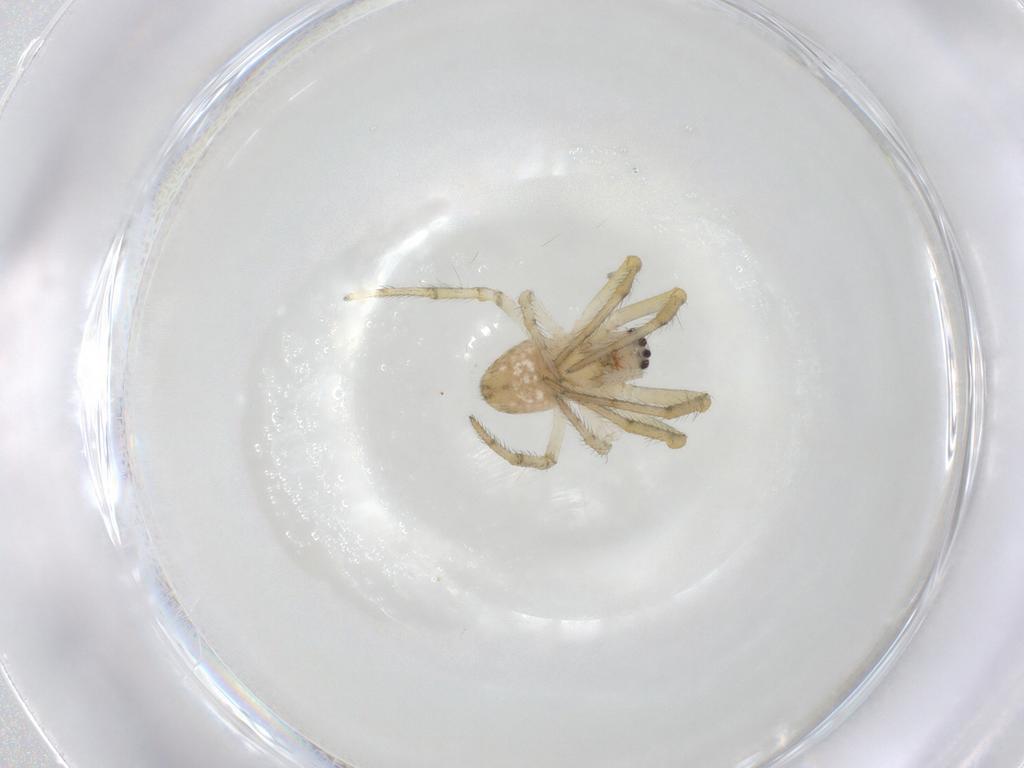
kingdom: Animalia
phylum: Arthropoda
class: Arachnida
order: Araneae
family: Araneidae
